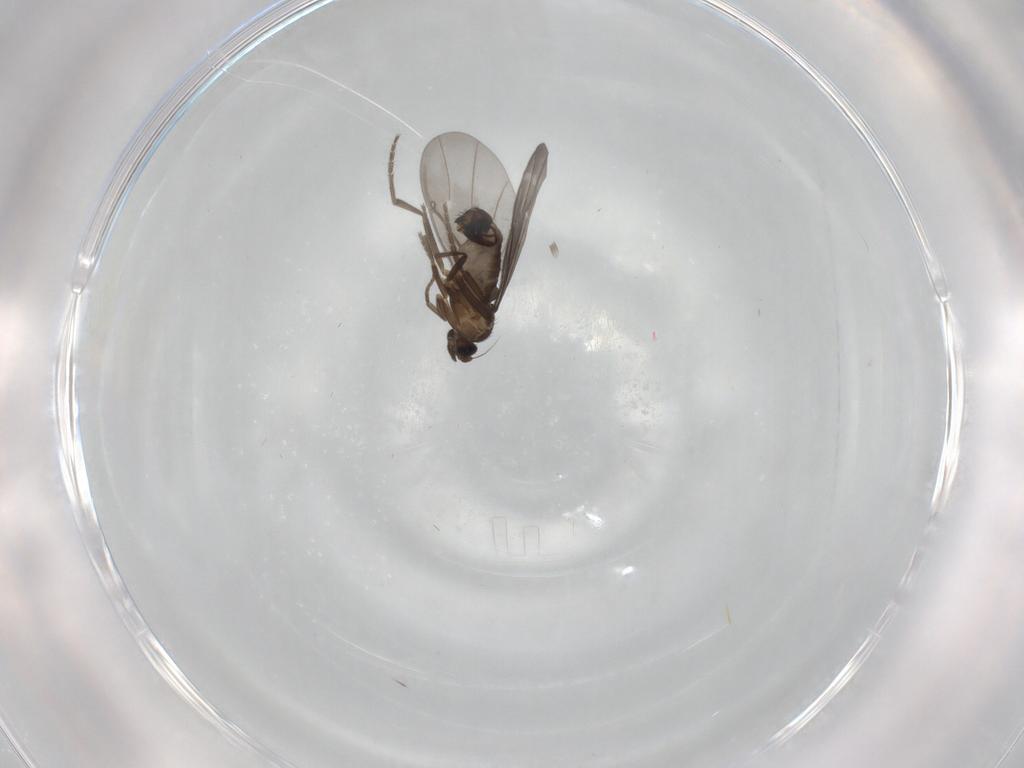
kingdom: Animalia
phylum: Arthropoda
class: Insecta
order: Diptera
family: Phoridae
